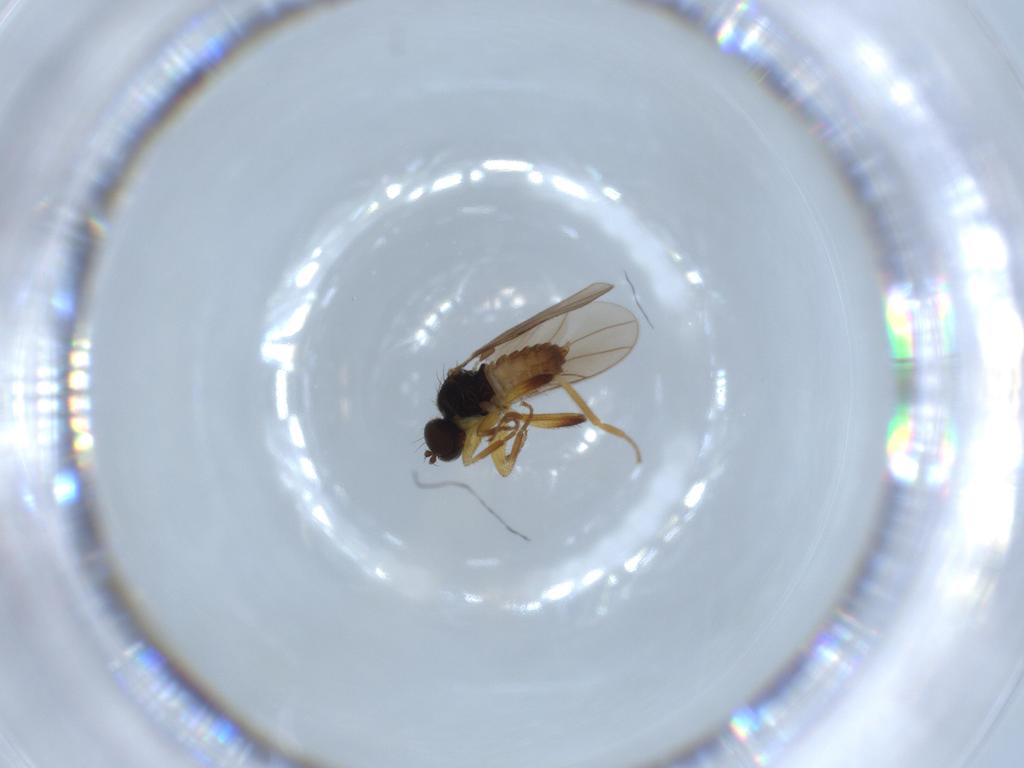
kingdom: Animalia
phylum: Arthropoda
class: Insecta
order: Diptera
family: Hybotidae
